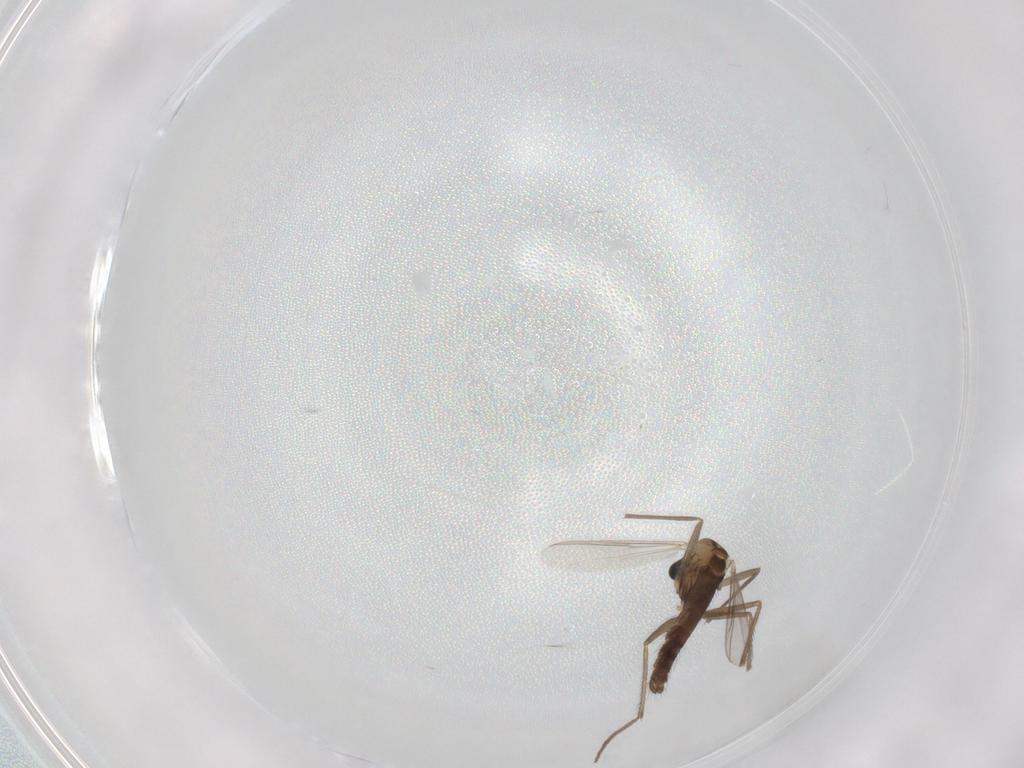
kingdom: Animalia
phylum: Arthropoda
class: Insecta
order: Diptera
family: Chironomidae
